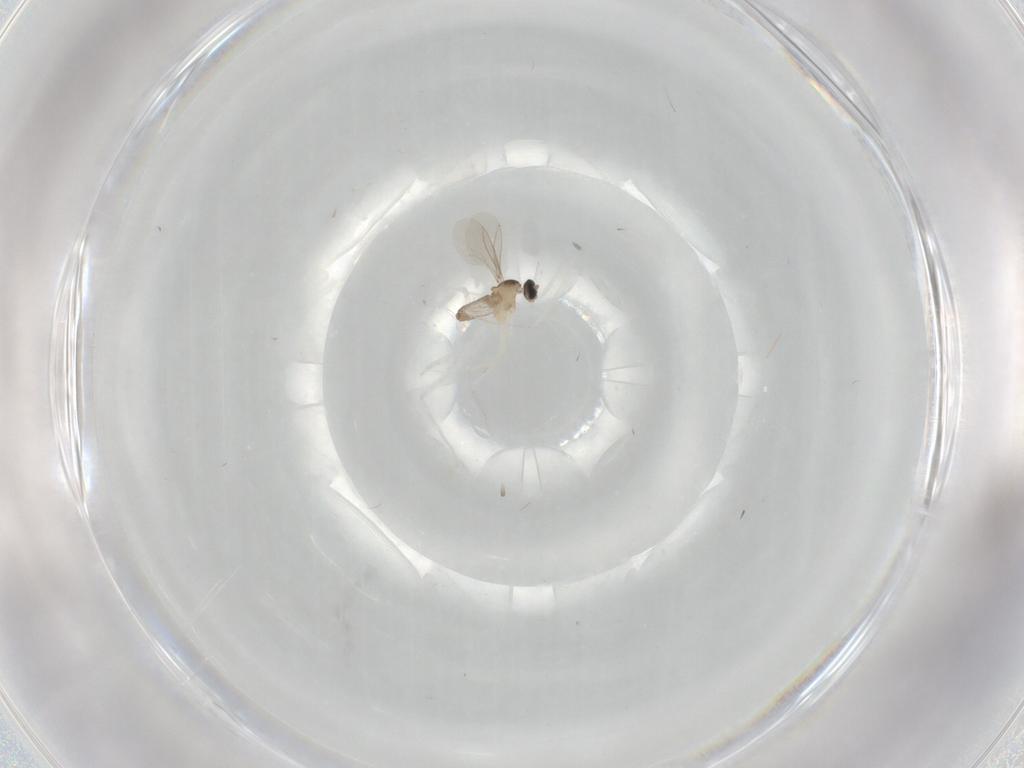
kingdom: Animalia
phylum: Arthropoda
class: Insecta
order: Diptera
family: Cecidomyiidae
